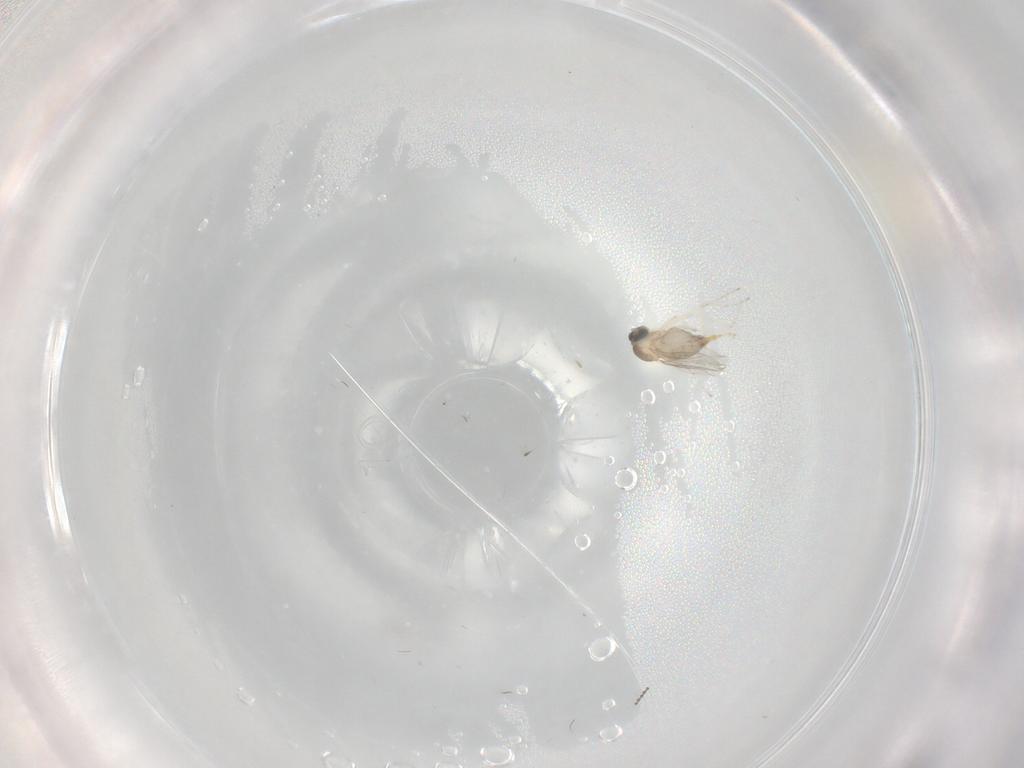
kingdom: Animalia
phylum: Arthropoda
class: Insecta
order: Diptera
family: Cecidomyiidae
